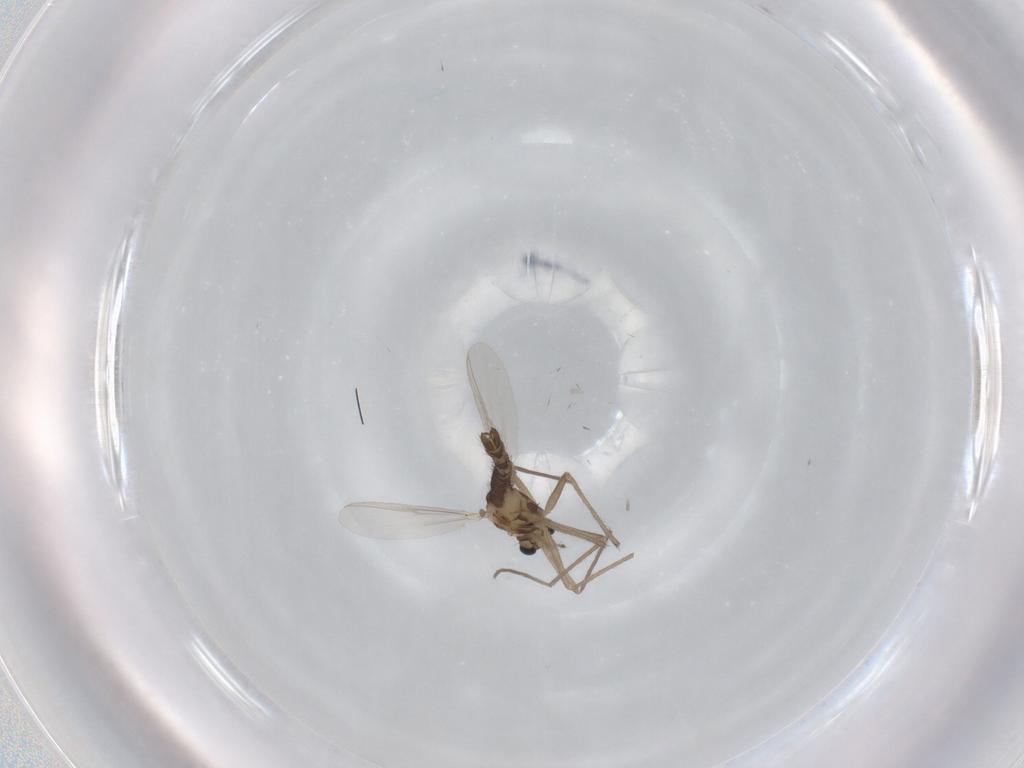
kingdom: Animalia
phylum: Arthropoda
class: Insecta
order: Diptera
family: Chironomidae
